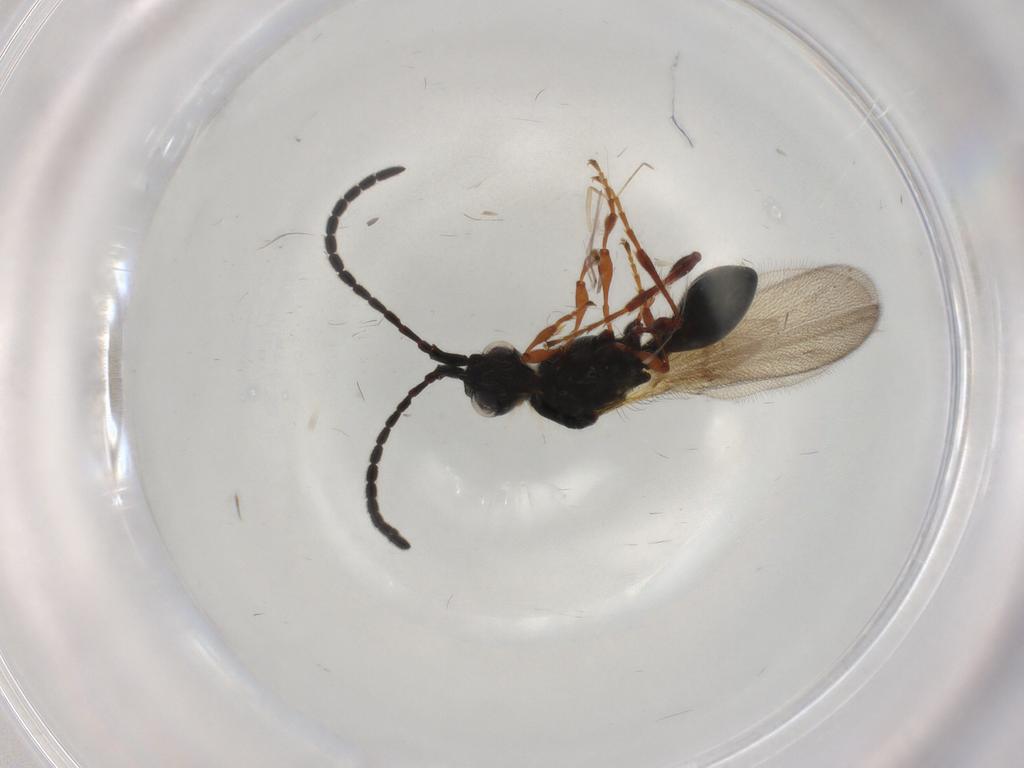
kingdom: Animalia
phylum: Arthropoda
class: Insecta
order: Hymenoptera
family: Diapriidae
